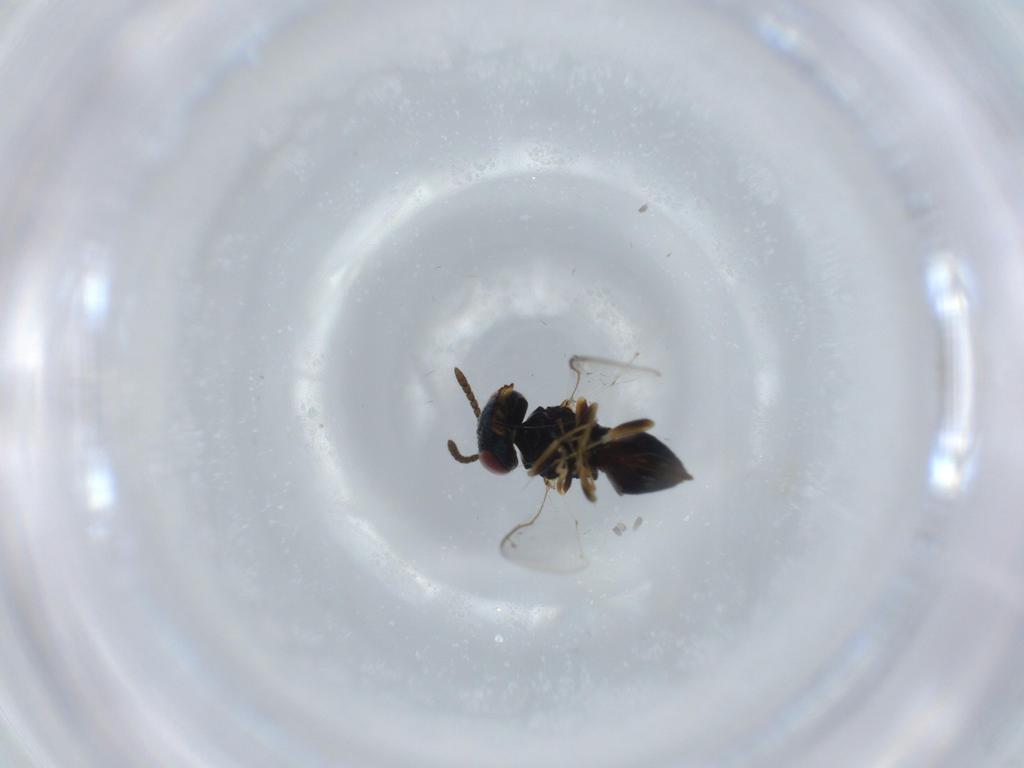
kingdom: Animalia
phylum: Arthropoda
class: Insecta
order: Hymenoptera
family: Eupelmidae
